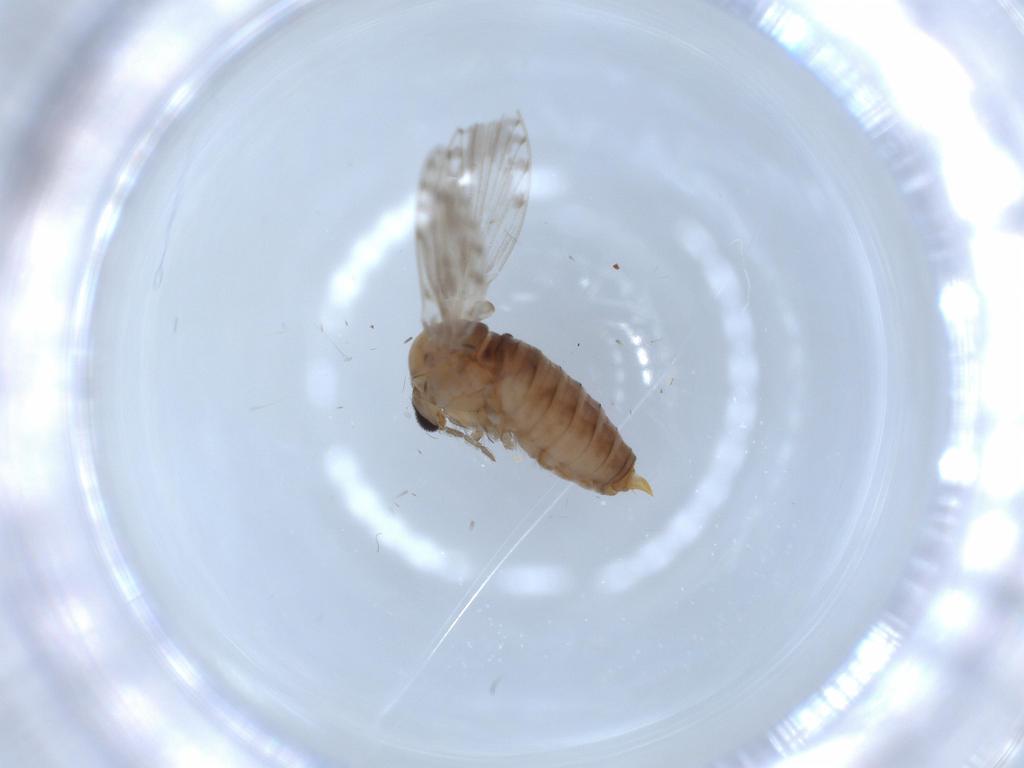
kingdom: Animalia
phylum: Arthropoda
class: Insecta
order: Diptera
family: Psychodidae
